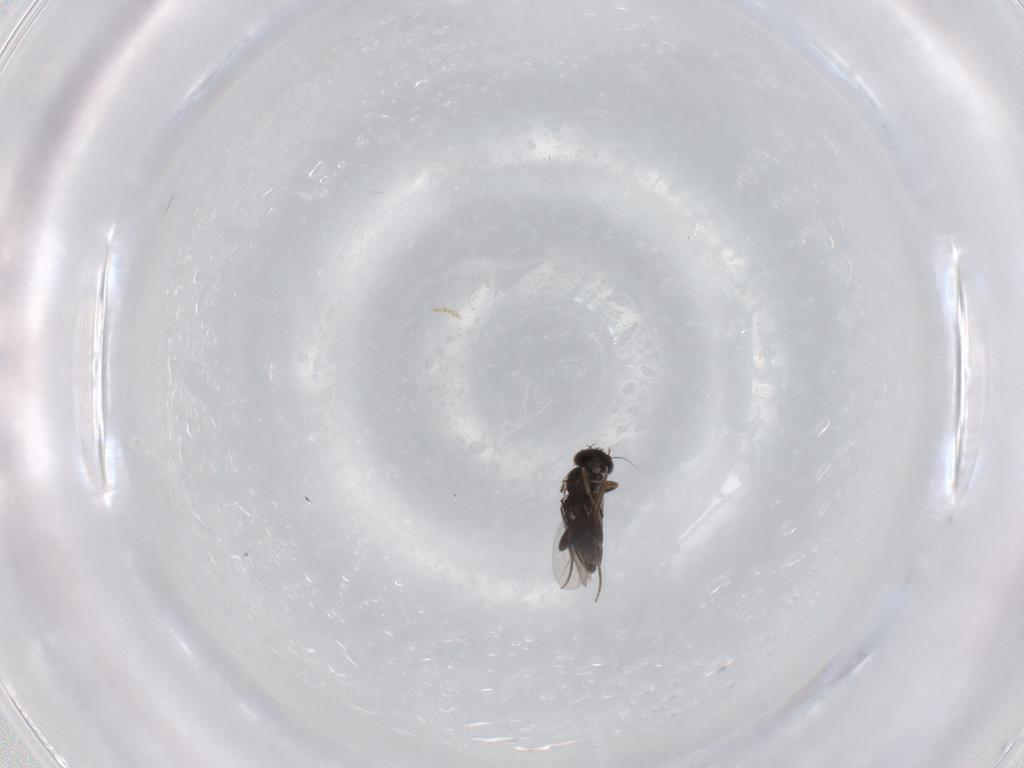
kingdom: Animalia
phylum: Arthropoda
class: Insecta
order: Diptera
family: Phoridae
